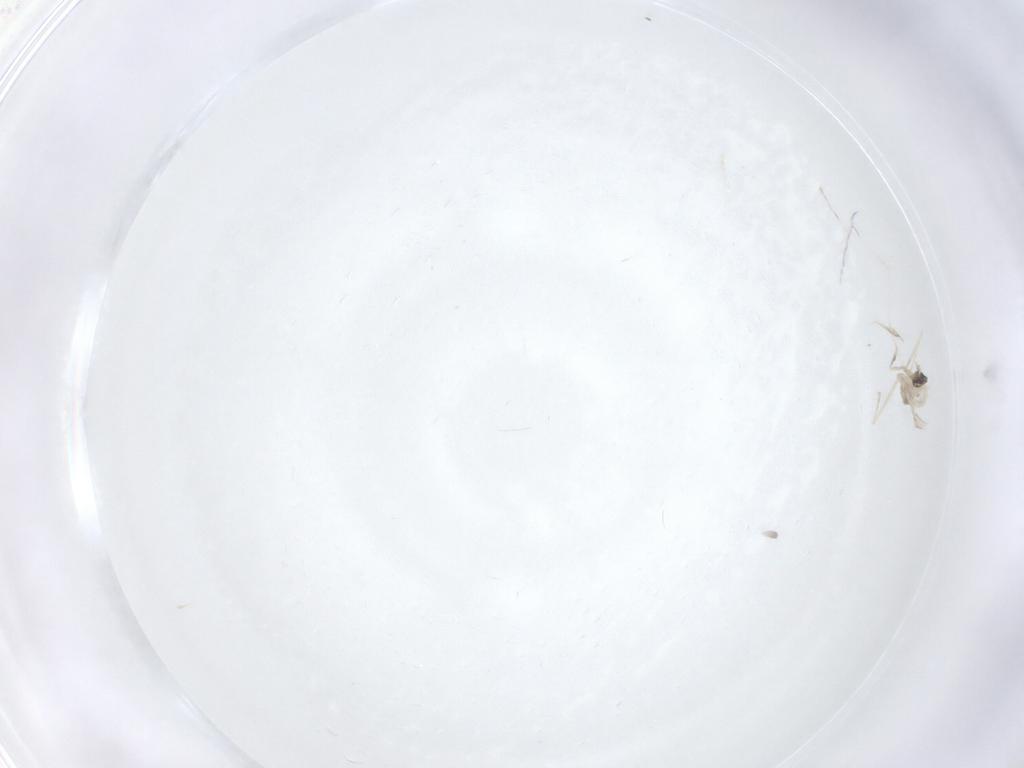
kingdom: Animalia
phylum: Arthropoda
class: Insecta
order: Diptera
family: Cecidomyiidae
